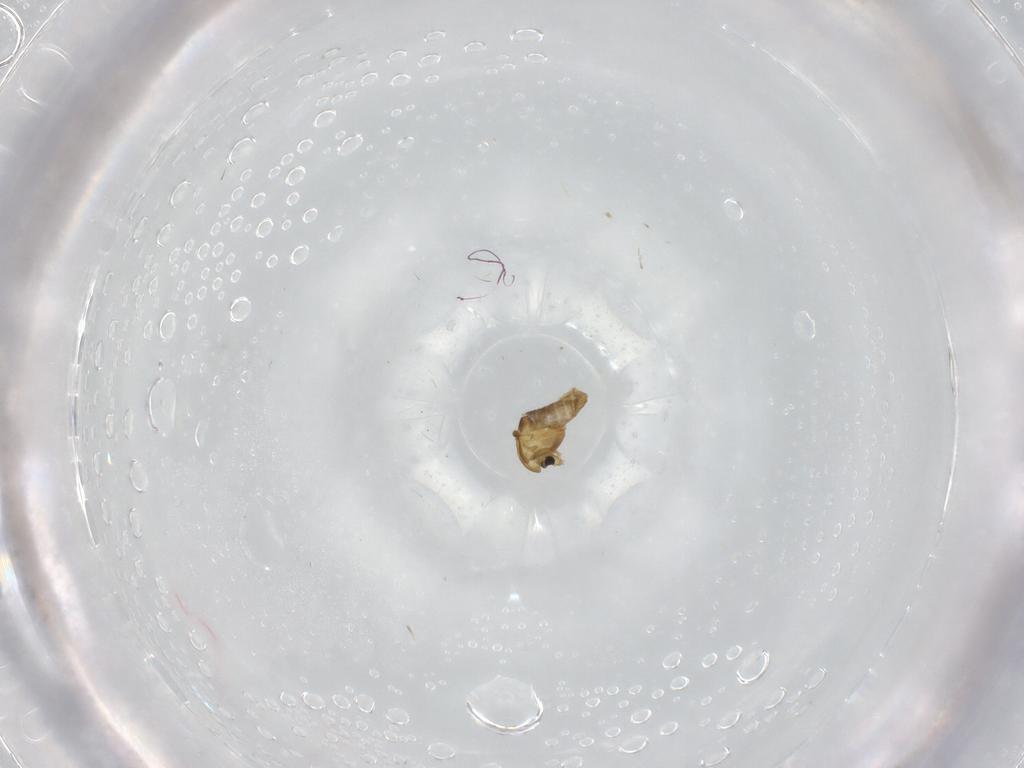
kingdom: Animalia
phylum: Arthropoda
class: Insecta
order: Diptera
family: Chironomidae
